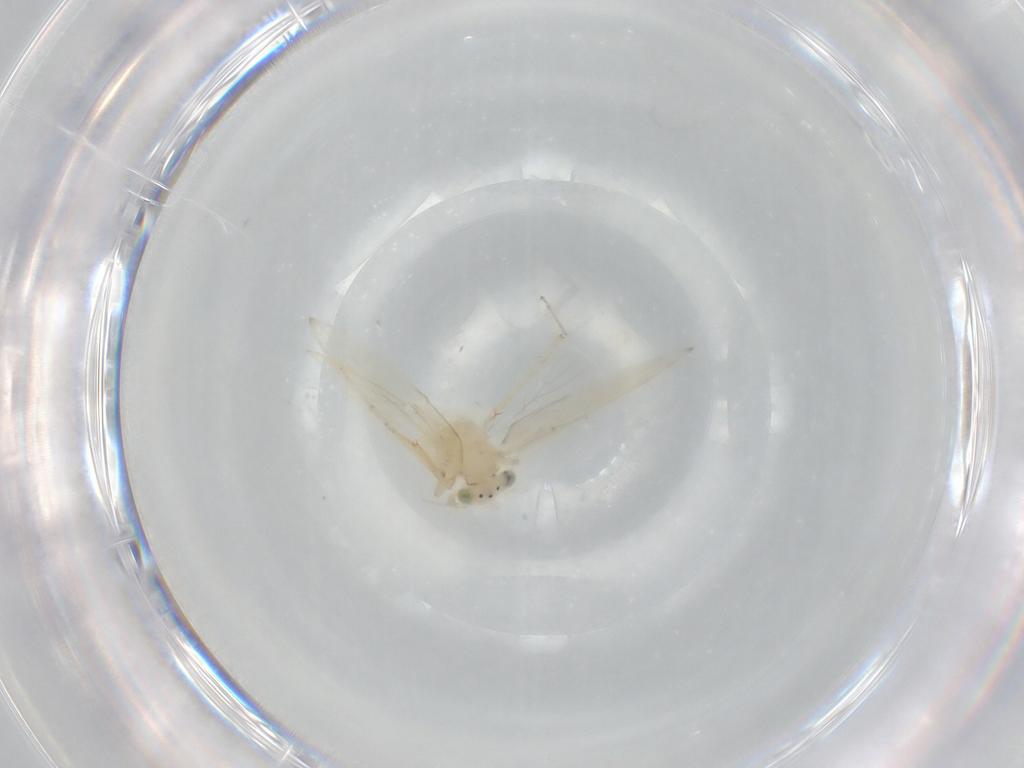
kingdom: Animalia
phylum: Arthropoda
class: Insecta
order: Psocodea
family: Lepidopsocidae
